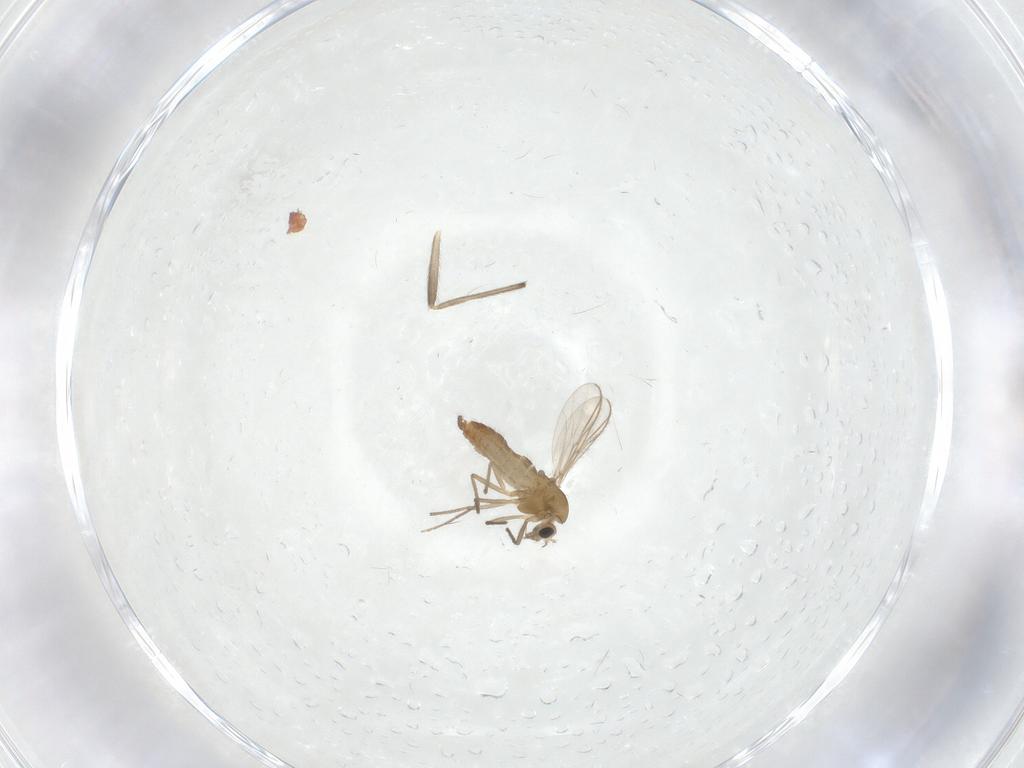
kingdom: Animalia
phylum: Arthropoda
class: Insecta
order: Diptera
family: Chironomidae
